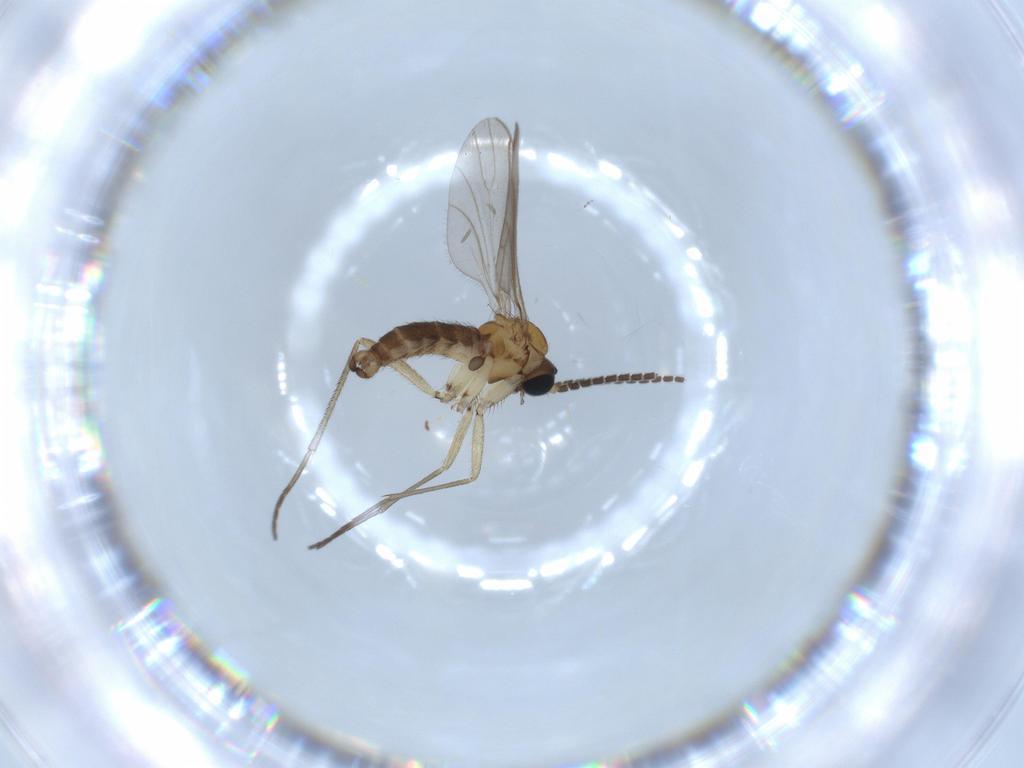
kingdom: Animalia
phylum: Arthropoda
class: Insecta
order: Diptera
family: Sciaridae
